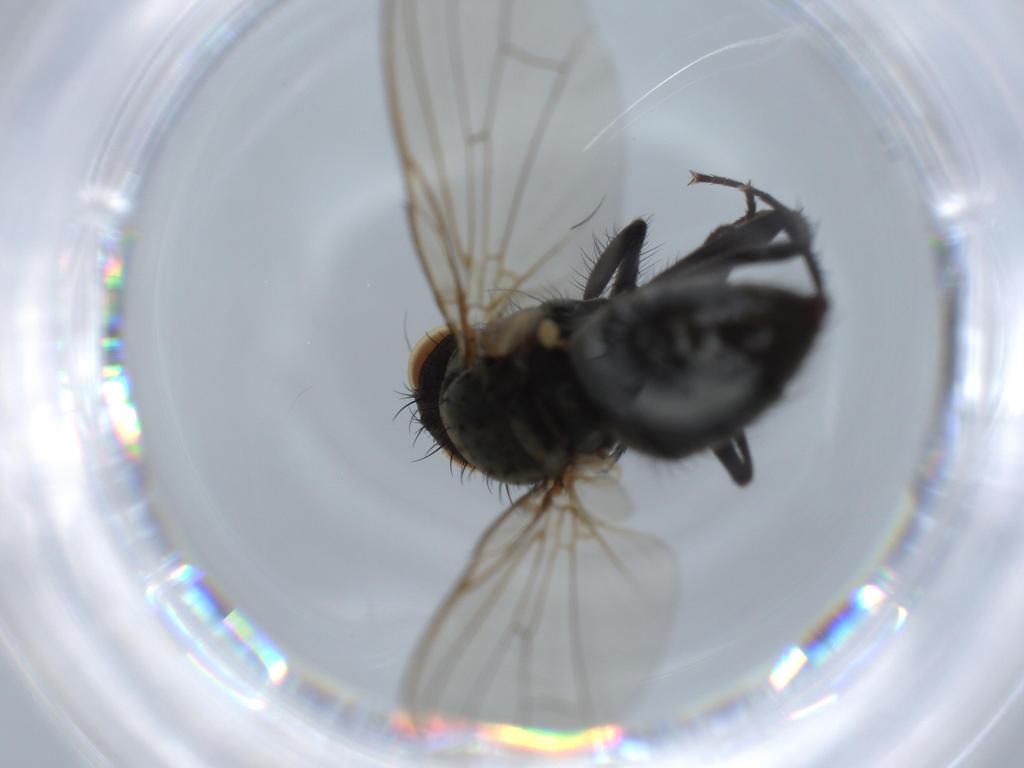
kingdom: Animalia
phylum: Arthropoda
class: Insecta
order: Diptera
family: Anthomyiidae
